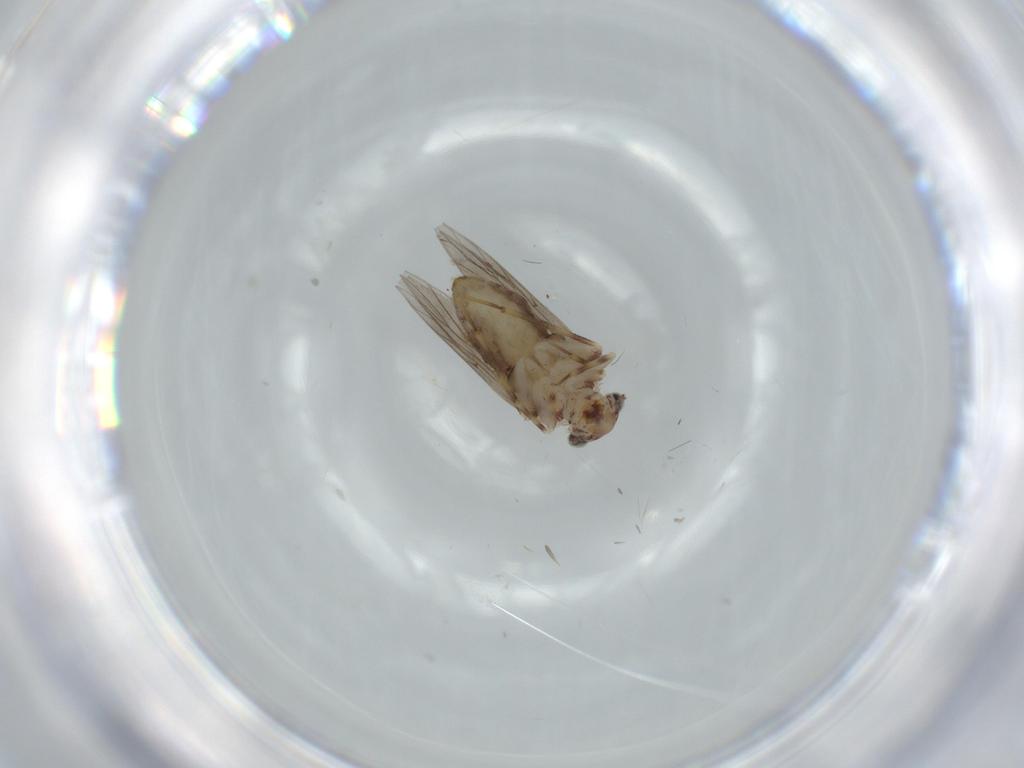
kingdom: Animalia
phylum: Arthropoda
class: Insecta
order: Psocodea
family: Lepidopsocidae
